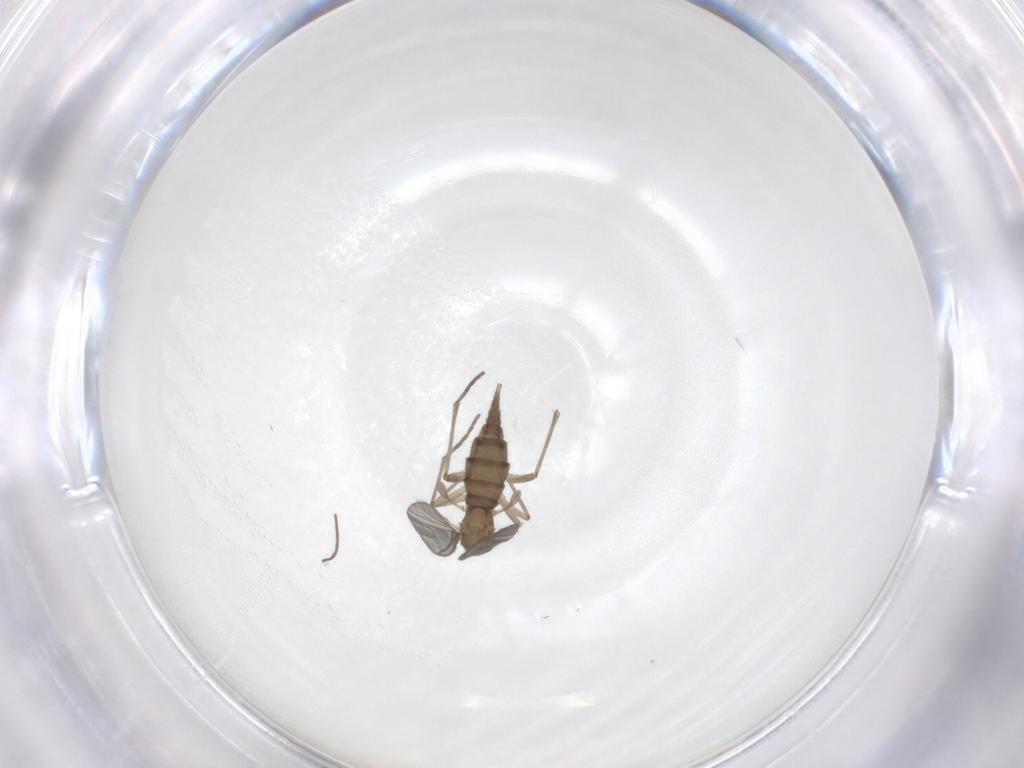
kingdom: Animalia
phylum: Arthropoda
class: Insecta
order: Diptera
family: Sciaridae
